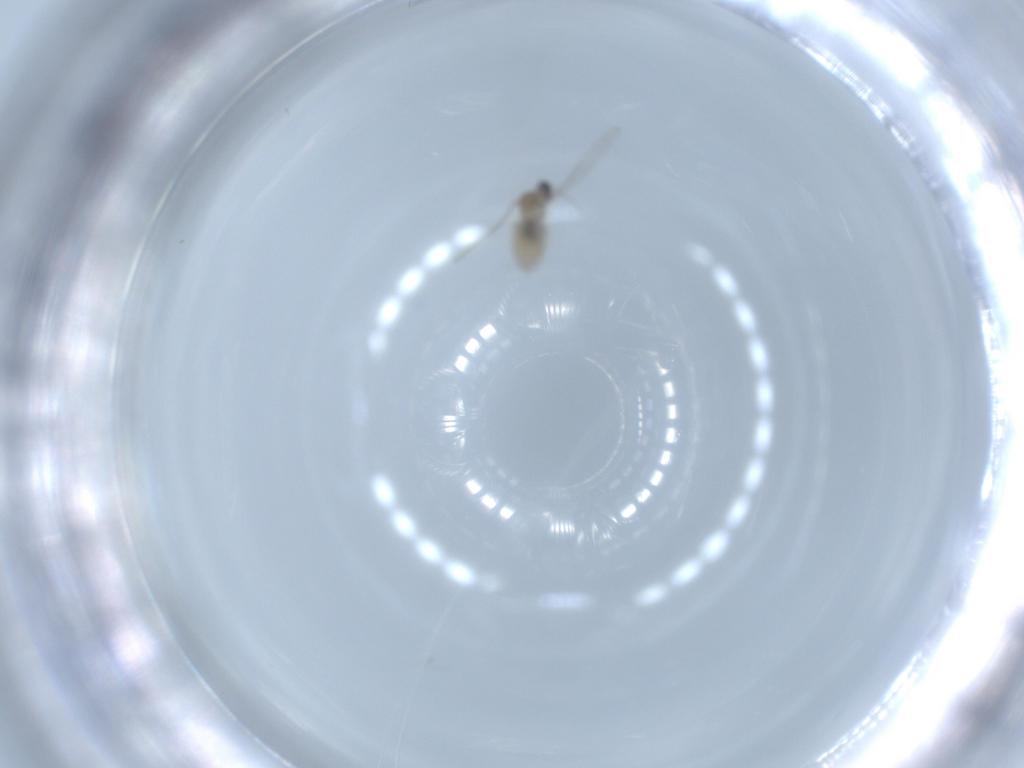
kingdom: Animalia
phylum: Arthropoda
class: Insecta
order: Diptera
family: Cecidomyiidae
